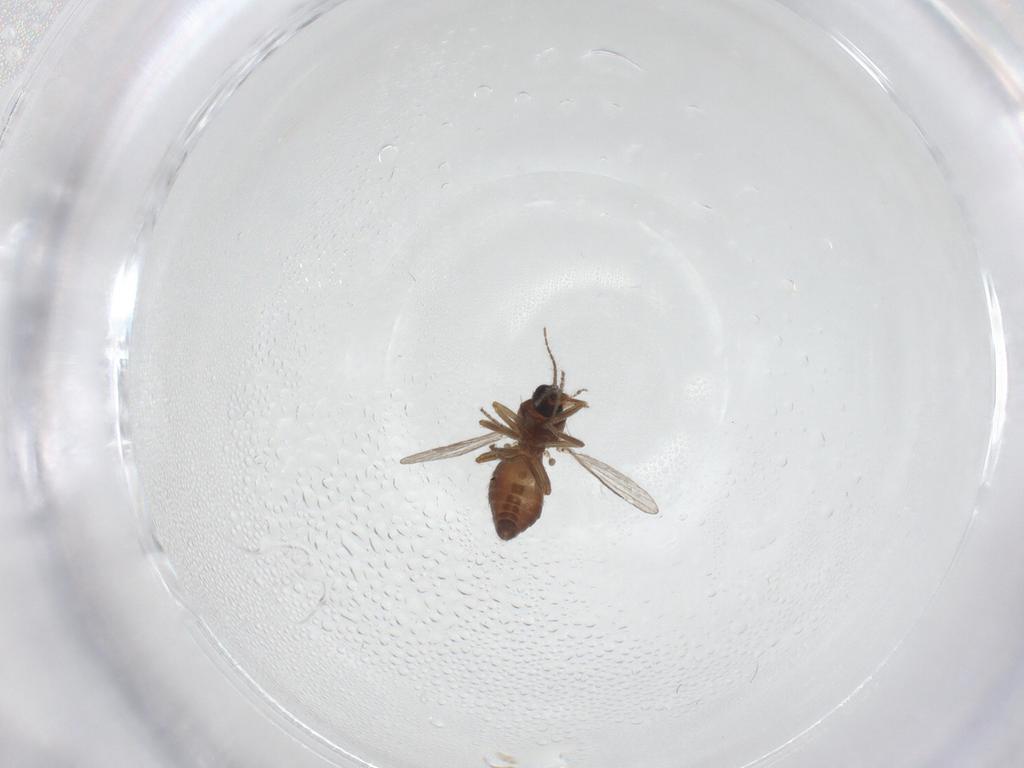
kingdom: Animalia
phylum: Arthropoda
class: Insecta
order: Diptera
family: Ceratopogonidae
